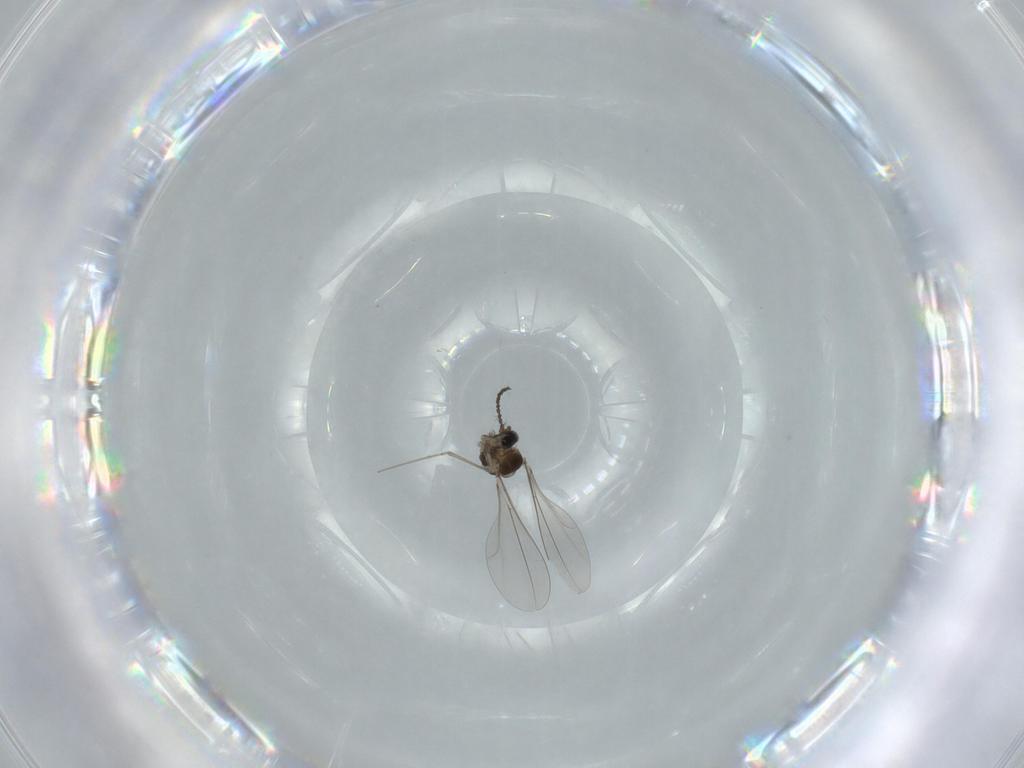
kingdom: Animalia
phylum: Arthropoda
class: Insecta
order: Diptera
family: Cecidomyiidae
